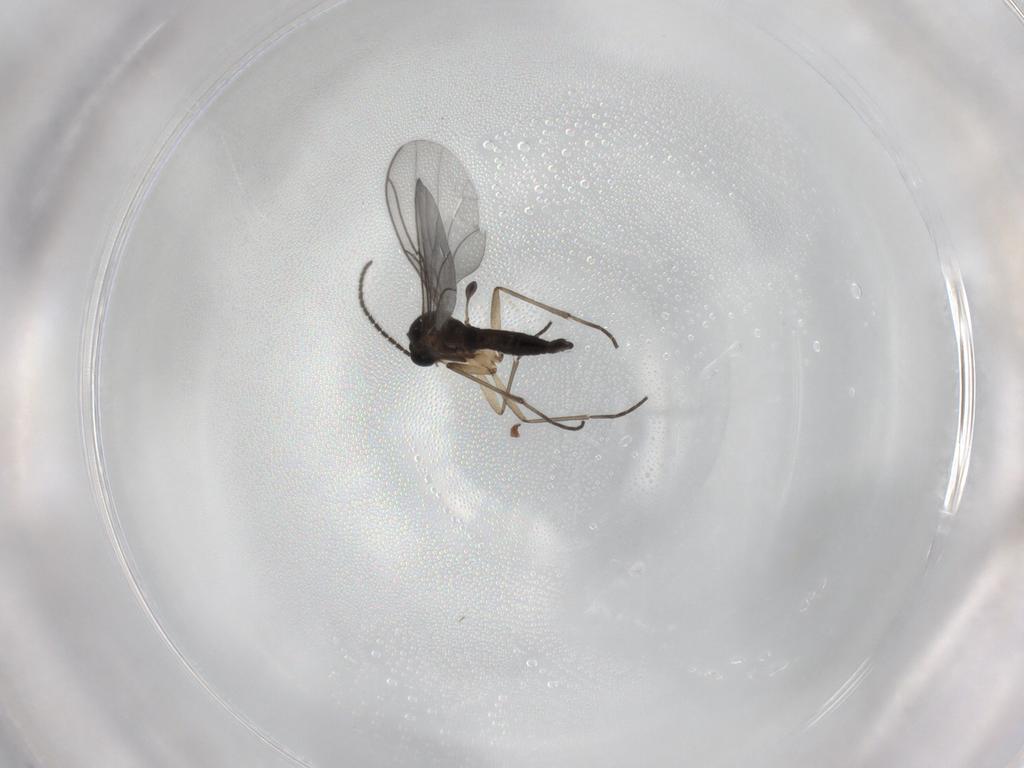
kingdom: Animalia
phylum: Arthropoda
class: Insecta
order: Diptera
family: Sciaridae
